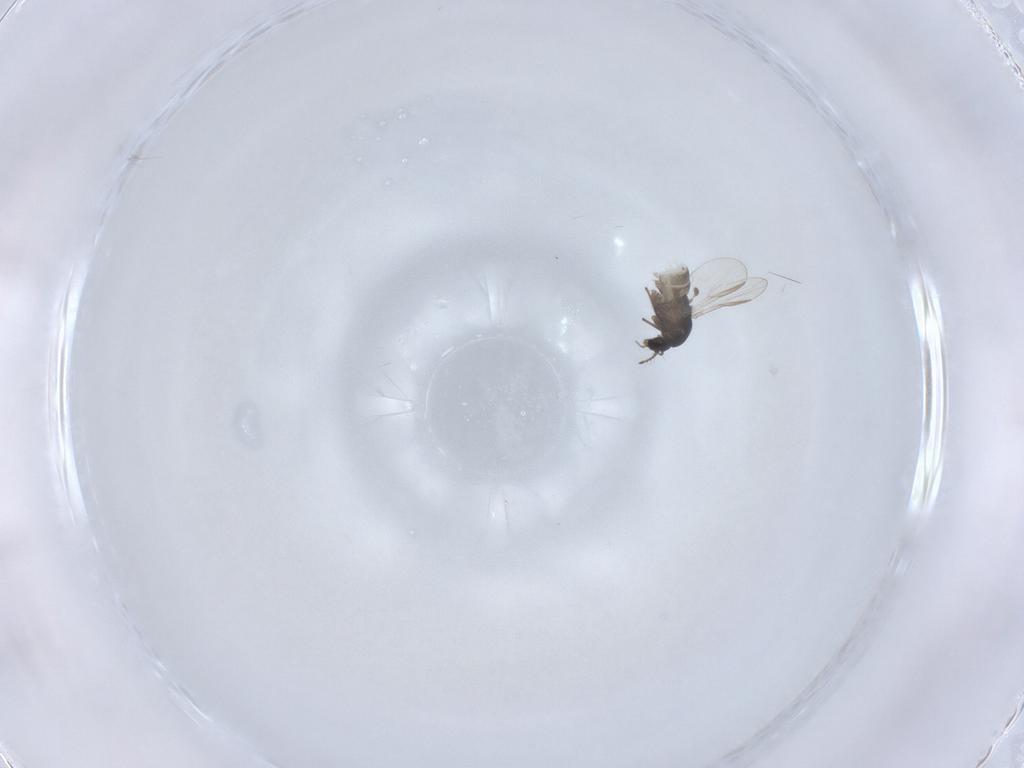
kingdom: Animalia
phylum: Arthropoda
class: Insecta
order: Diptera
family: Chironomidae
